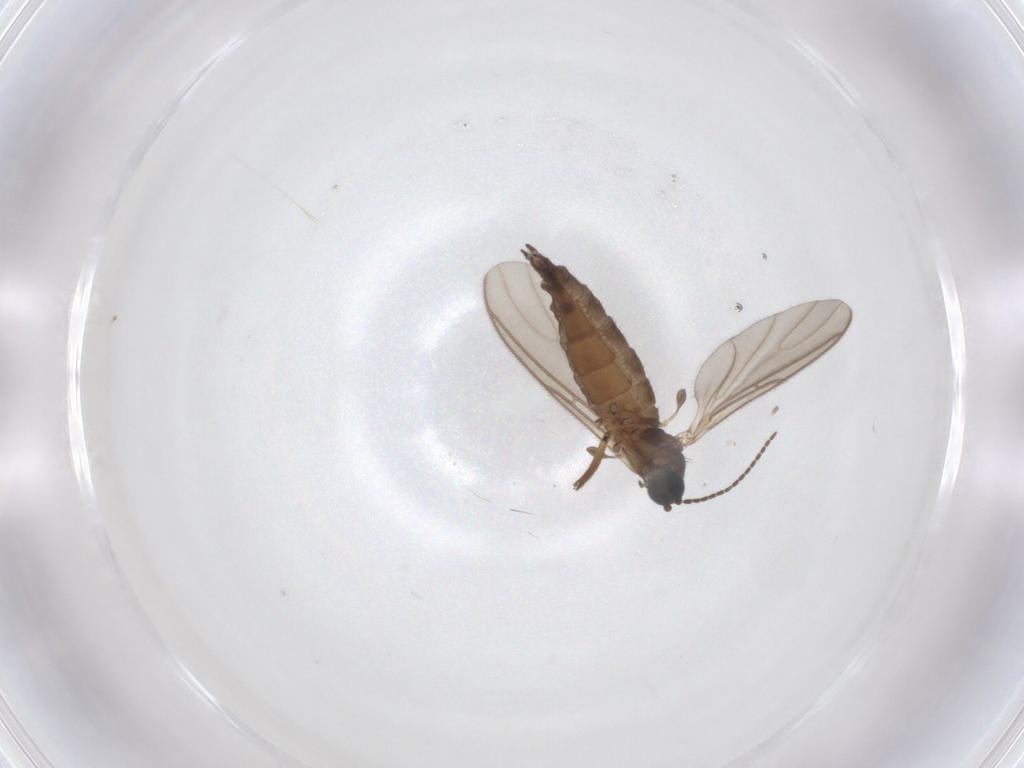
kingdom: Animalia
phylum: Arthropoda
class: Insecta
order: Diptera
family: Sciaridae
